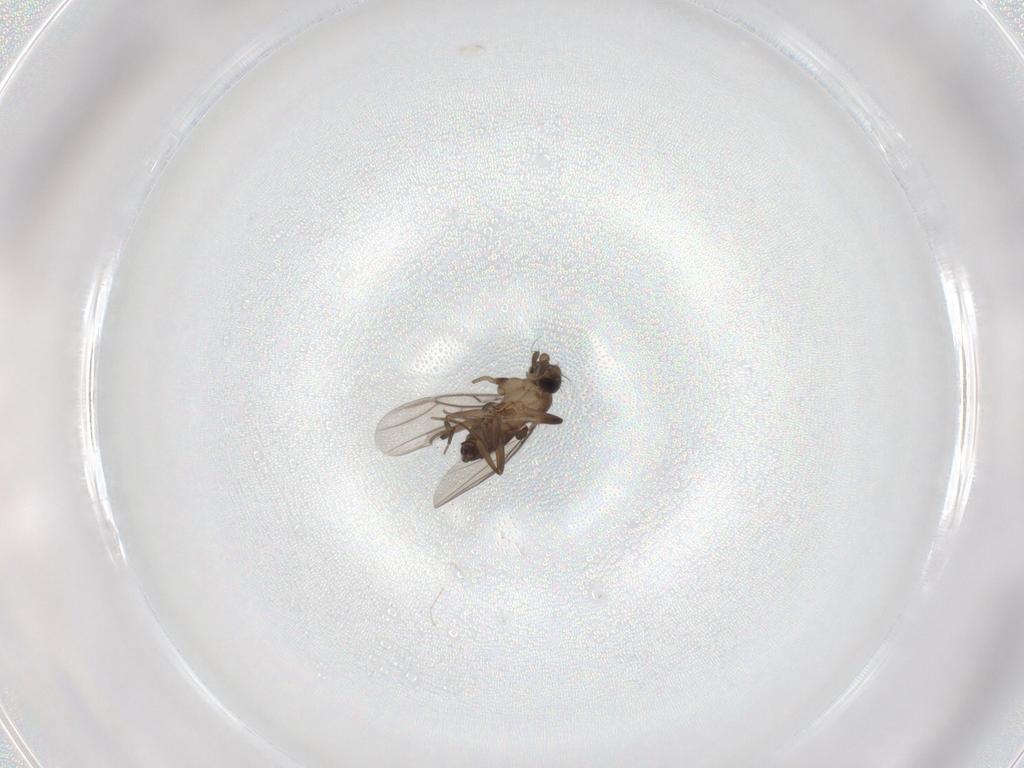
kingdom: Animalia
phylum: Arthropoda
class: Insecta
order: Diptera
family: Cecidomyiidae
